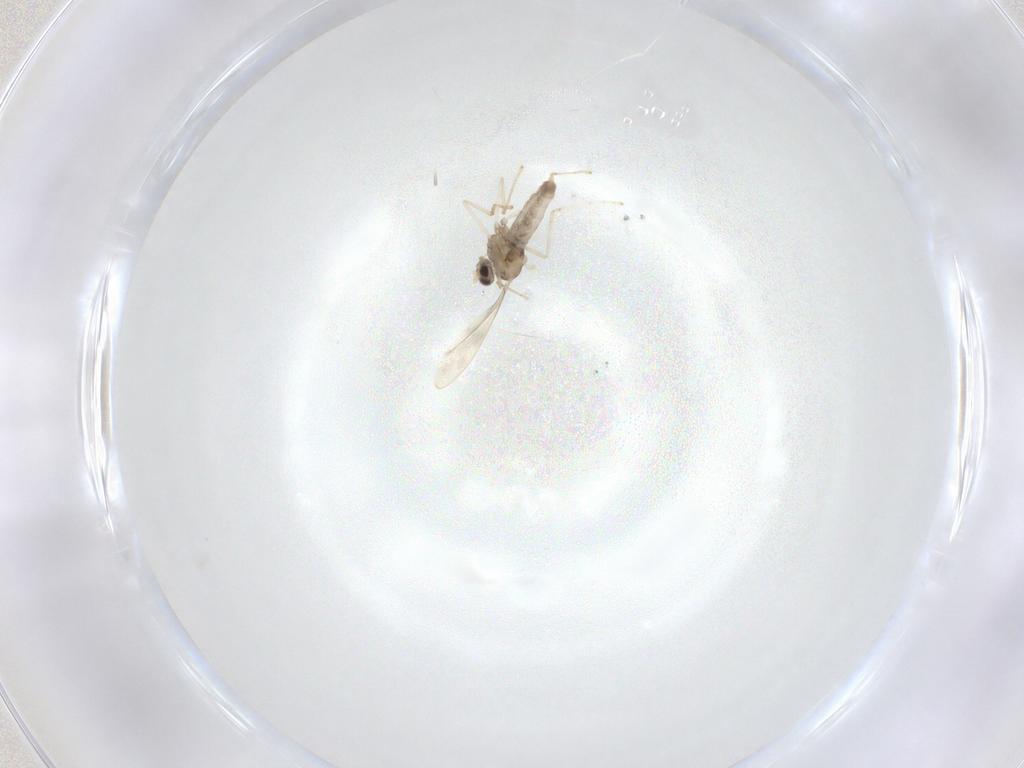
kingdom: Animalia
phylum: Arthropoda
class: Insecta
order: Diptera
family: Cecidomyiidae
